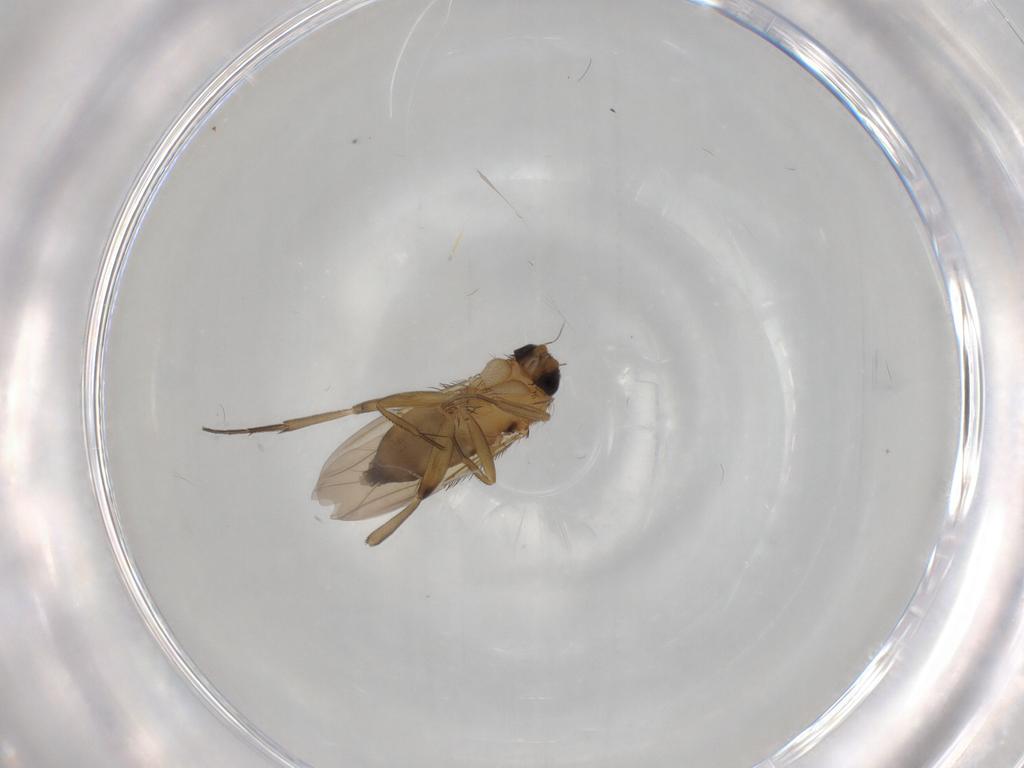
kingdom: Animalia
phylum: Arthropoda
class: Insecta
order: Diptera
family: Phoridae
